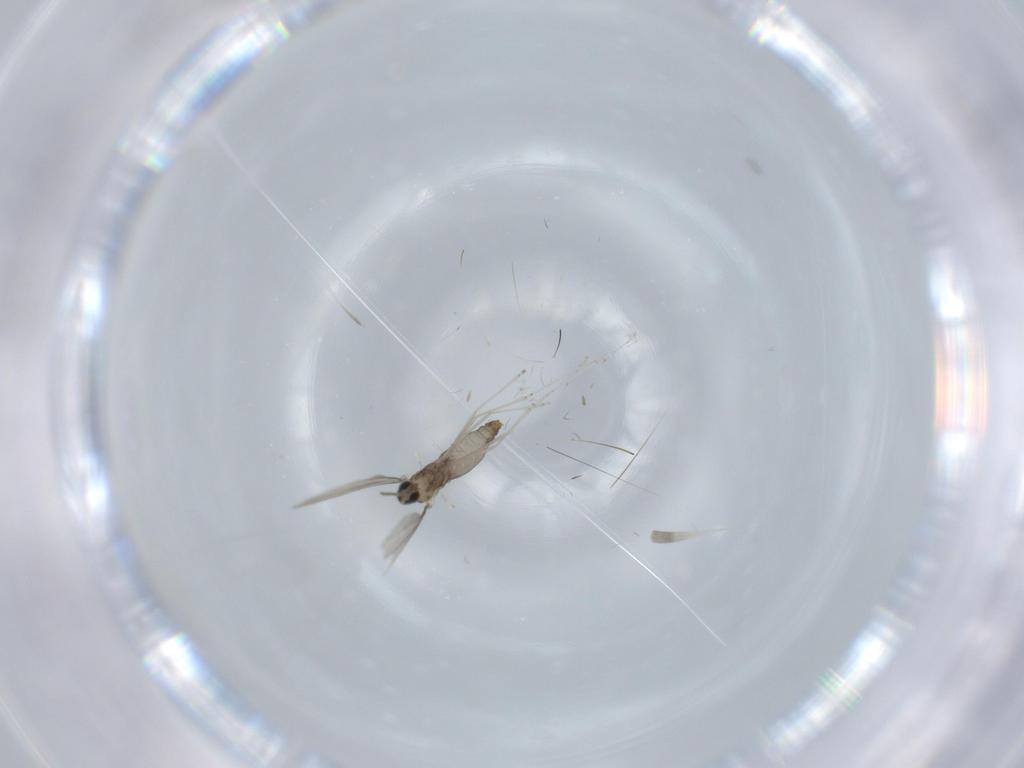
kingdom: Animalia
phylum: Arthropoda
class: Insecta
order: Diptera
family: Cecidomyiidae
